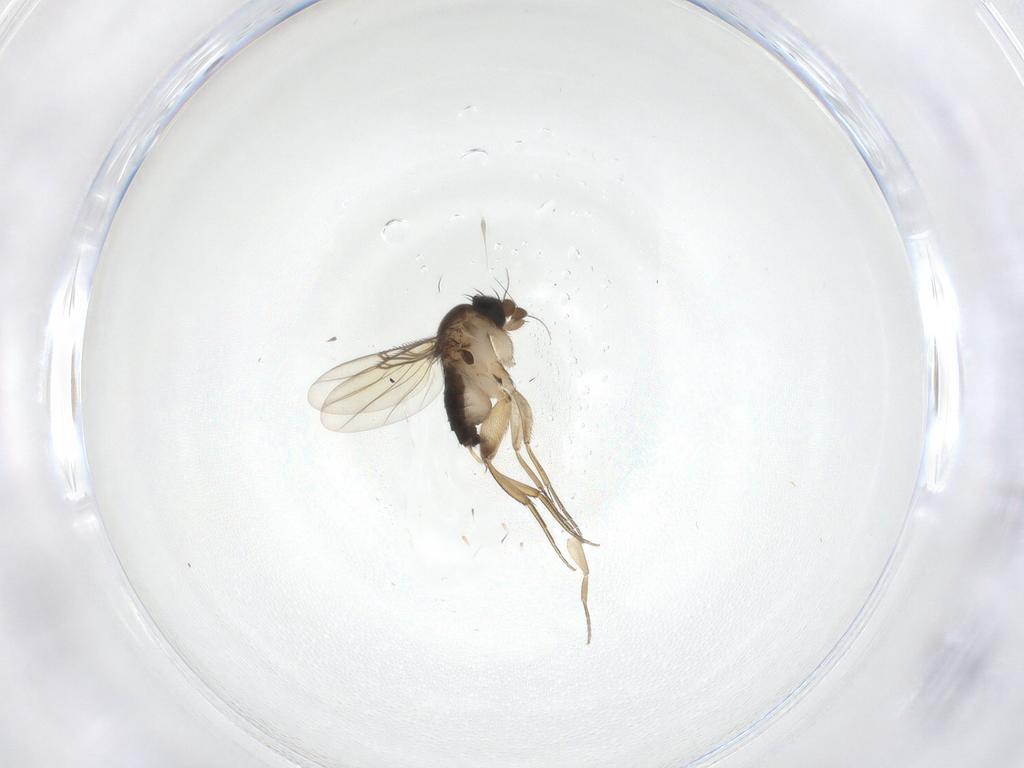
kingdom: Animalia
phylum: Arthropoda
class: Insecta
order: Diptera
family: Phoridae
